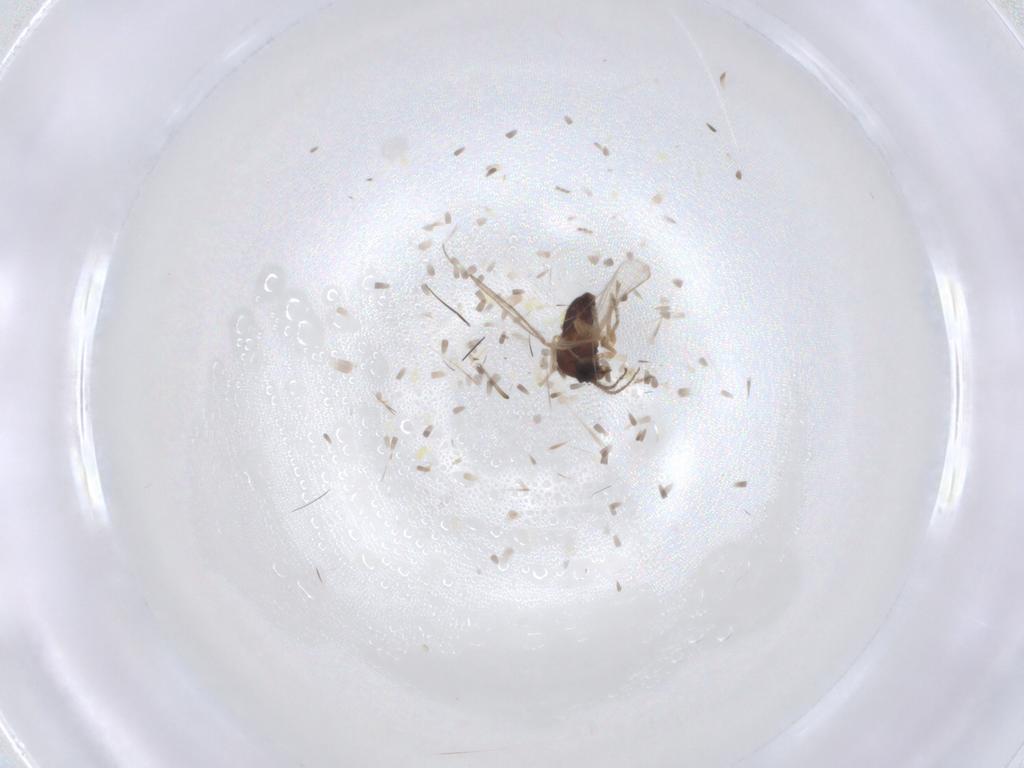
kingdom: Animalia
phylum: Arthropoda
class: Insecta
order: Diptera
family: Ceratopogonidae
